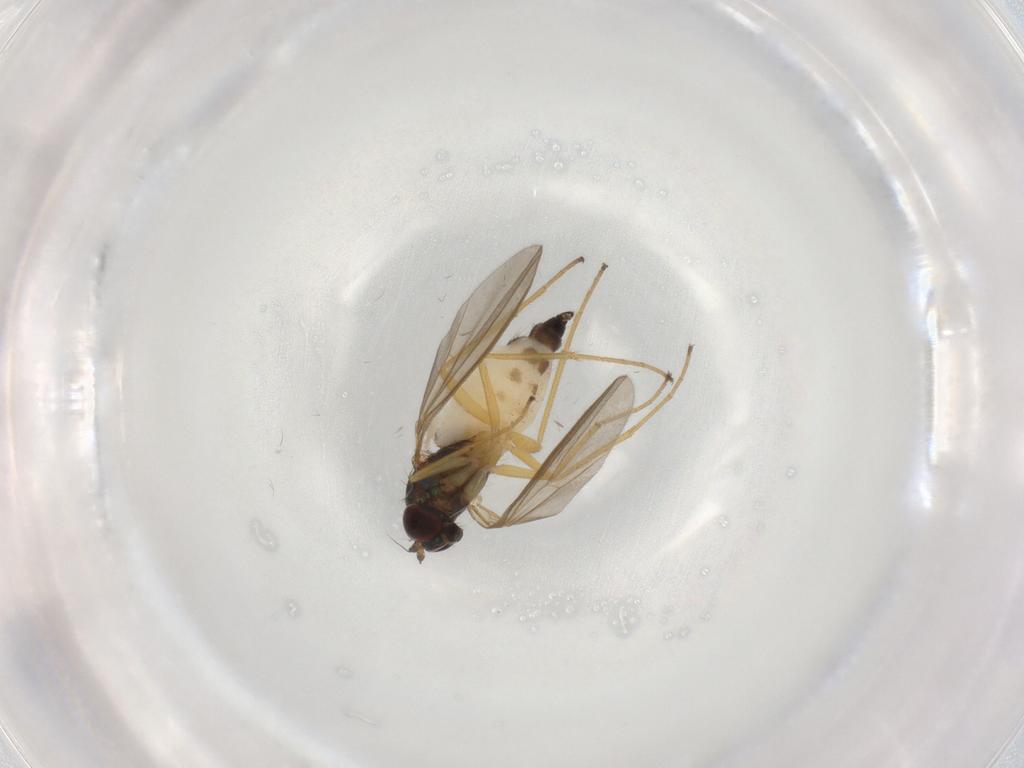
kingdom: Animalia
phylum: Arthropoda
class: Insecta
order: Diptera
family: Dolichopodidae
